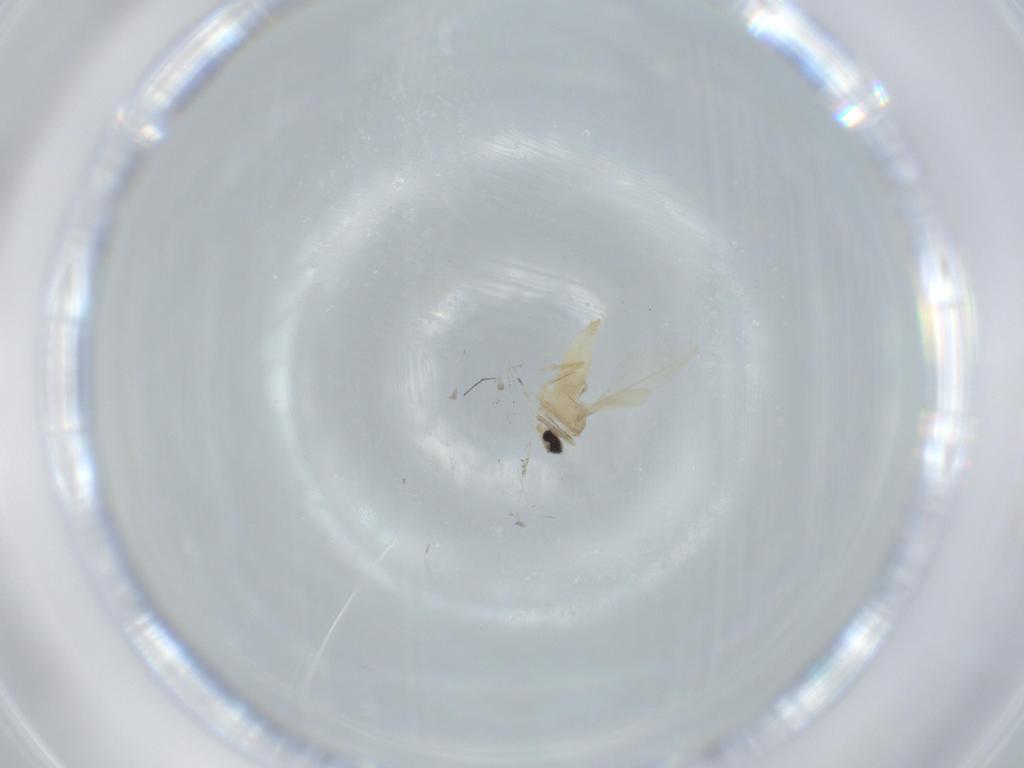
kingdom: Animalia
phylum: Arthropoda
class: Insecta
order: Diptera
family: Cecidomyiidae
